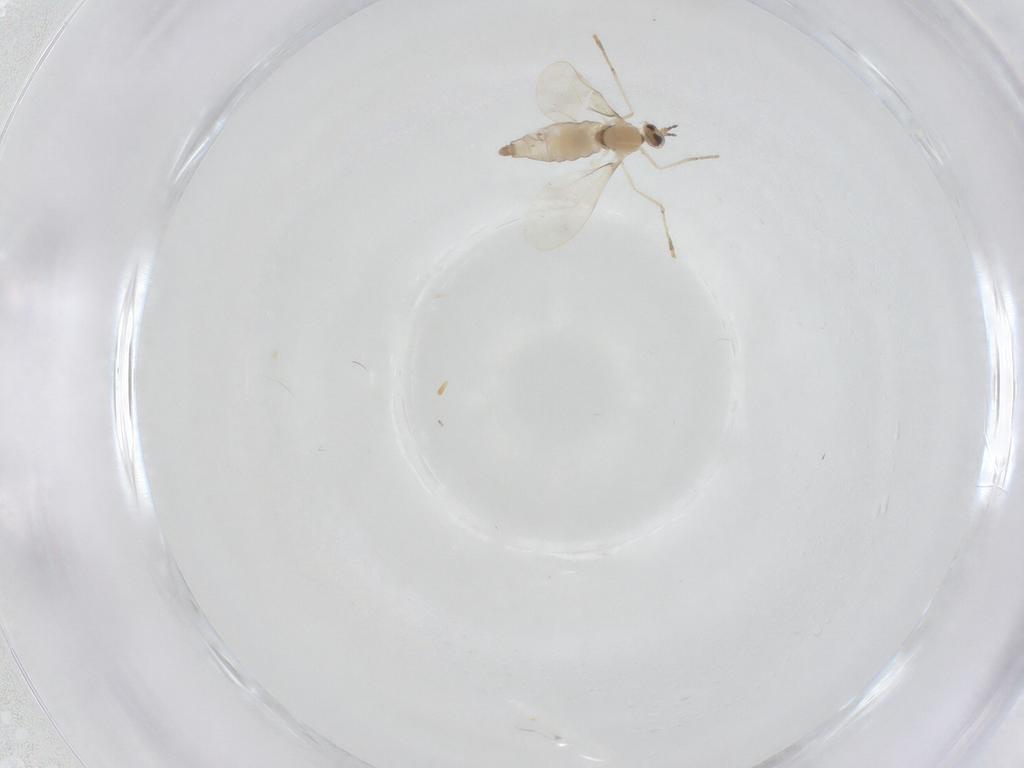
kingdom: Animalia
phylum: Arthropoda
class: Insecta
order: Diptera
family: Cecidomyiidae
